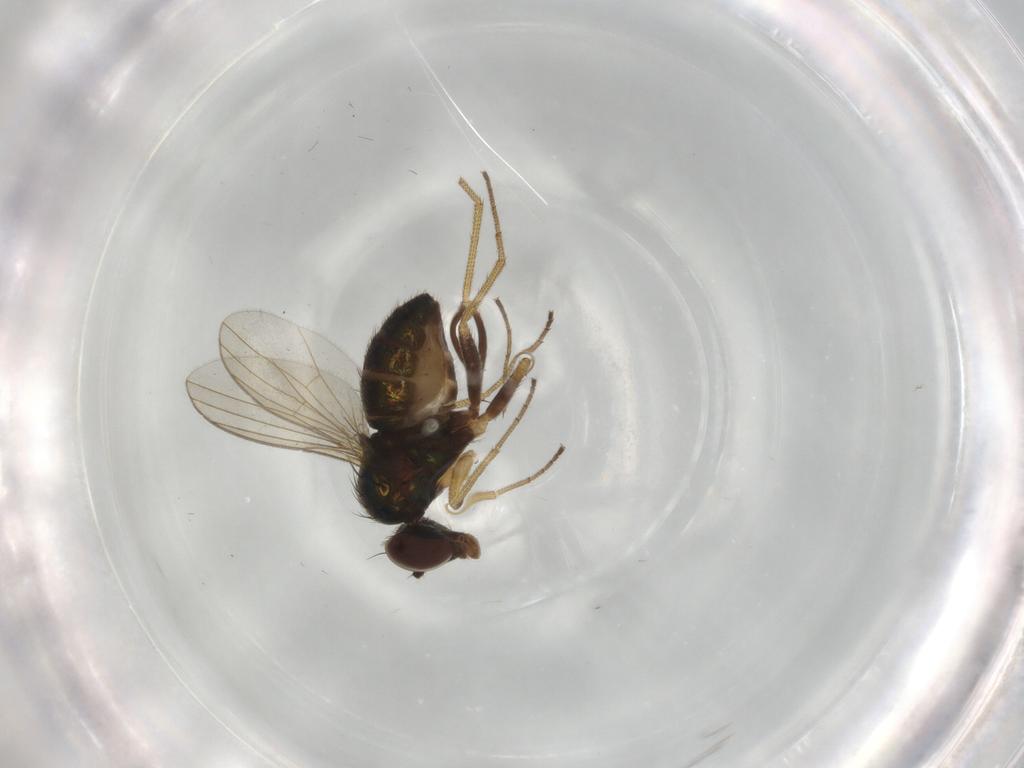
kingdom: Animalia
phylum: Arthropoda
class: Insecta
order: Diptera
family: Dolichopodidae
